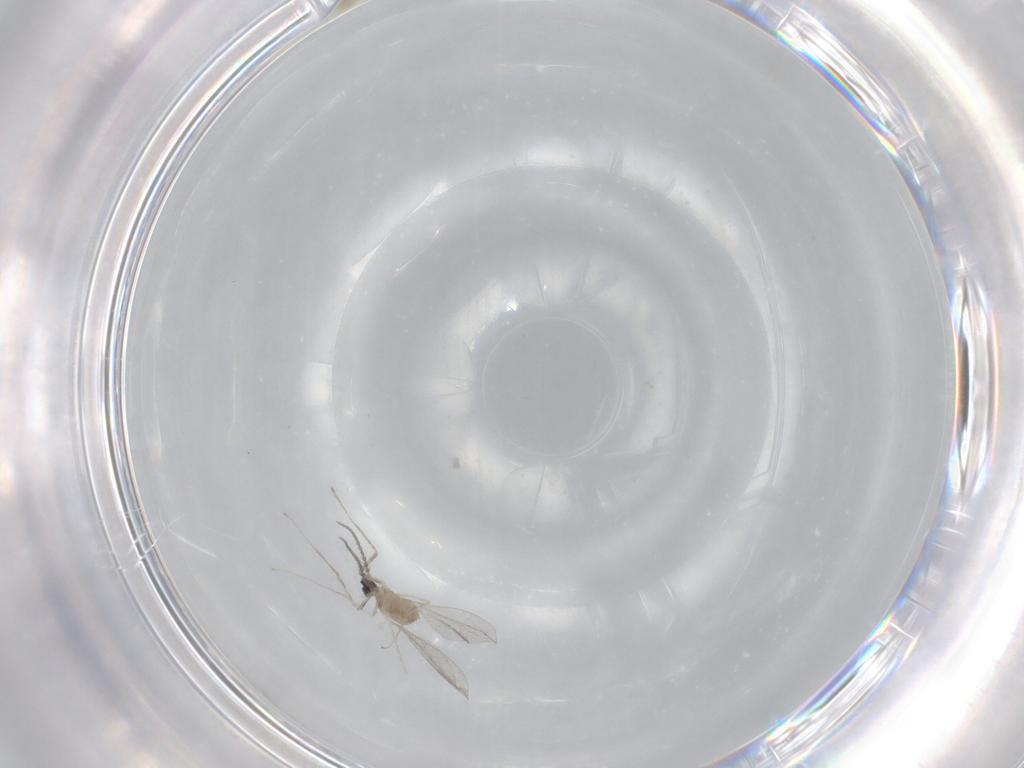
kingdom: Animalia
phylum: Arthropoda
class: Insecta
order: Diptera
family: Cecidomyiidae
